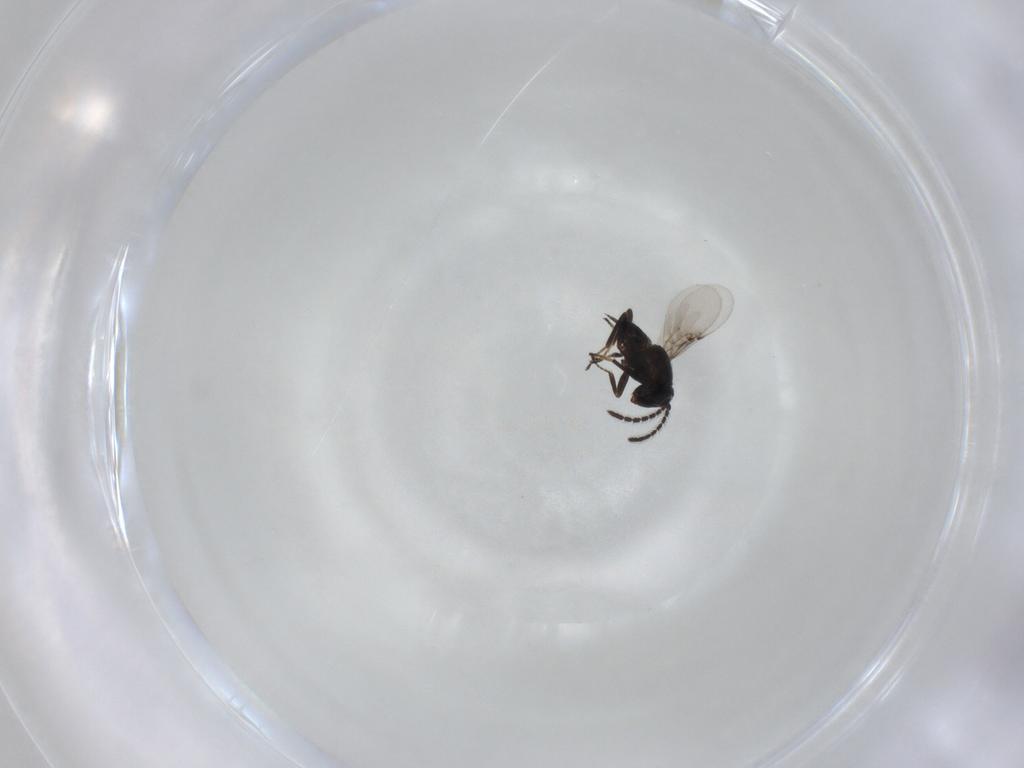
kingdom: Animalia
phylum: Arthropoda
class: Insecta
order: Hymenoptera
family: Encyrtidae
